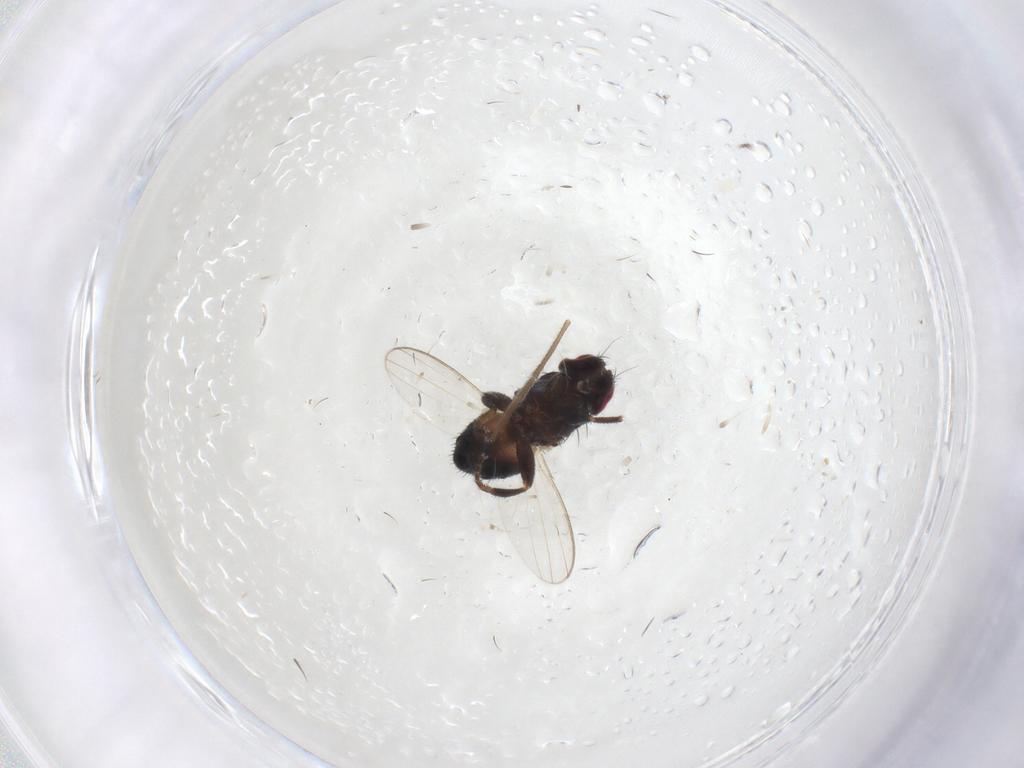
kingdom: Animalia
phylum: Arthropoda
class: Insecta
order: Diptera
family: Milichiidae
